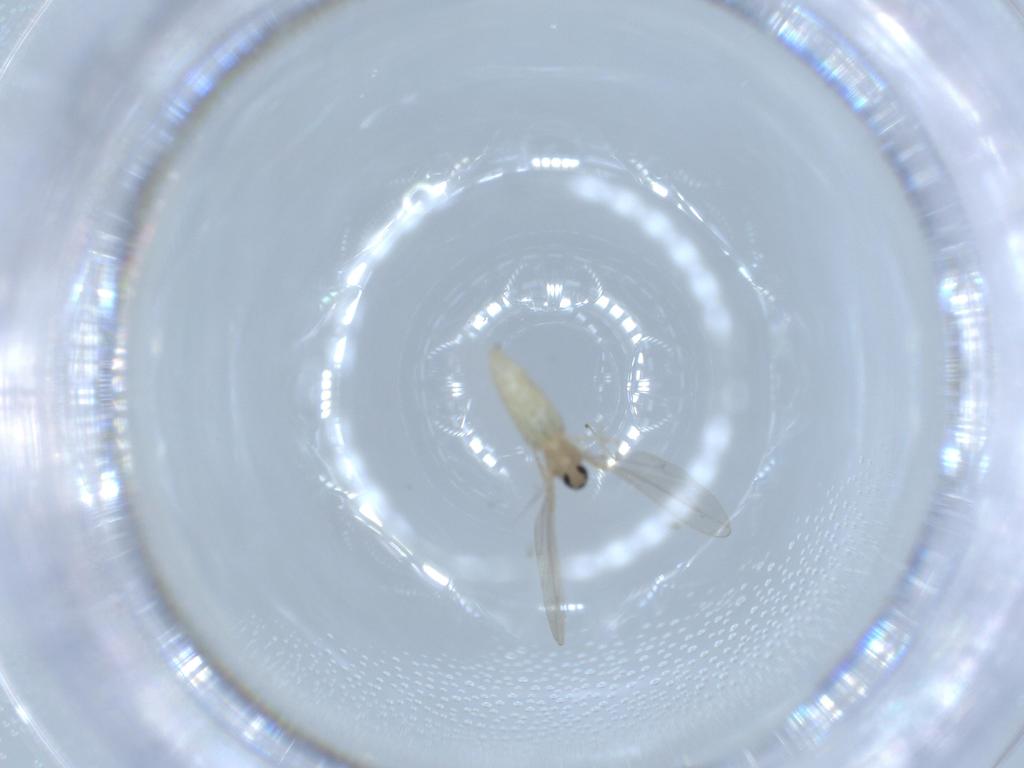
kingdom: Animalia
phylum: Arthropoda
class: Insecta
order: Diptera
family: Cecidomyiidae
